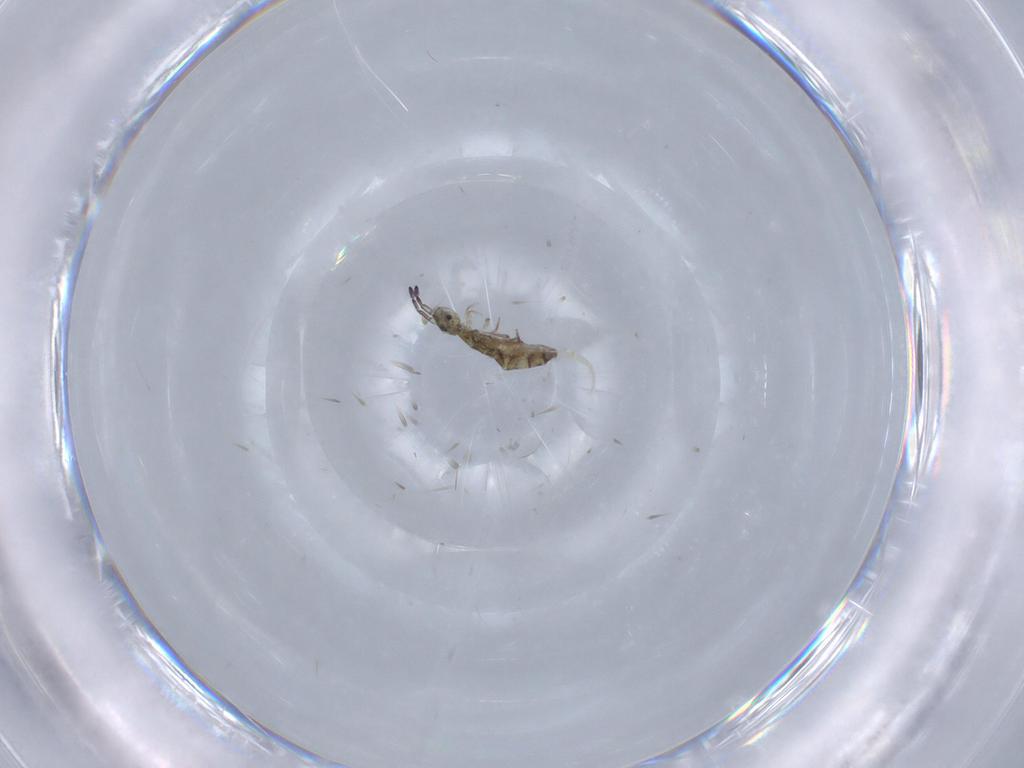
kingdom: Animalia
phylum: Arthropoda
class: Collembola
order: Entomobryomorpha
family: Isotomidae
